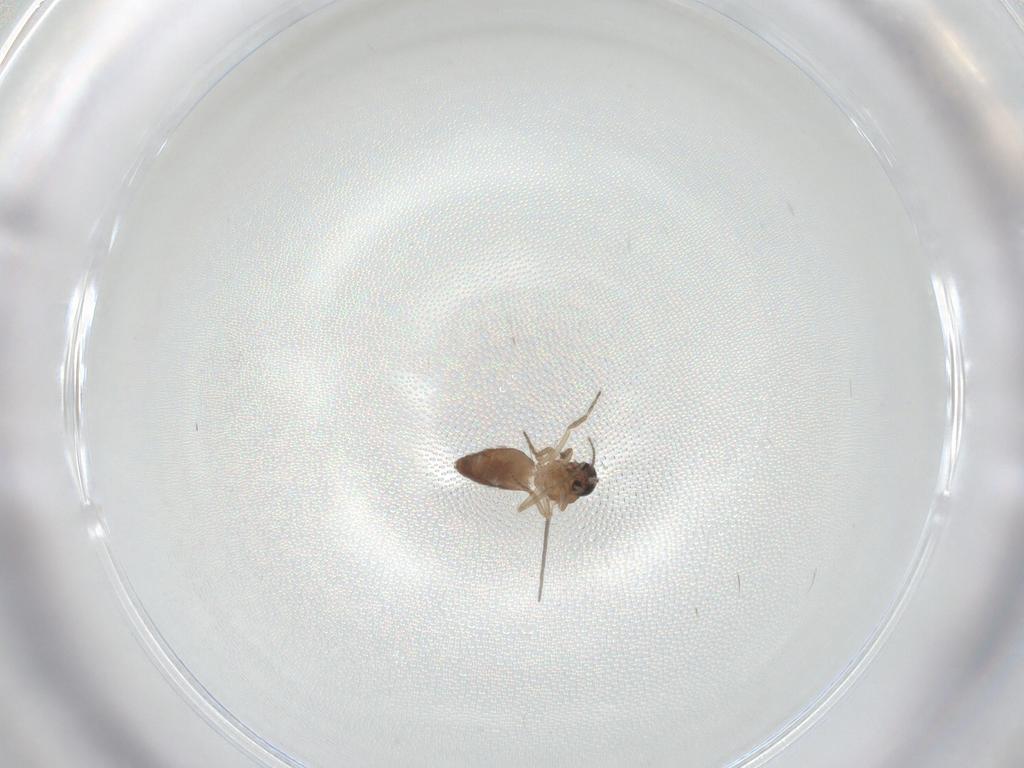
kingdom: Animalia
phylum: Arthropoda
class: Insecta
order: Diptera
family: Ceratopogonidae
